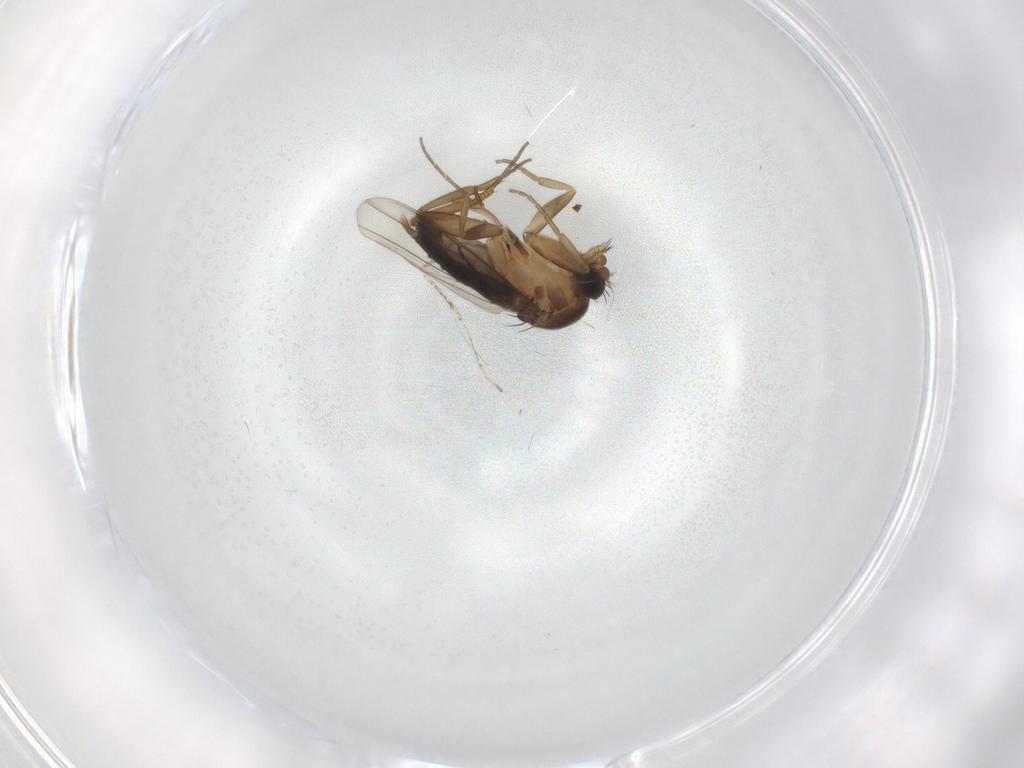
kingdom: Animalia
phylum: Arthropoda
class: Insecta
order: Diptera
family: Phoridae
